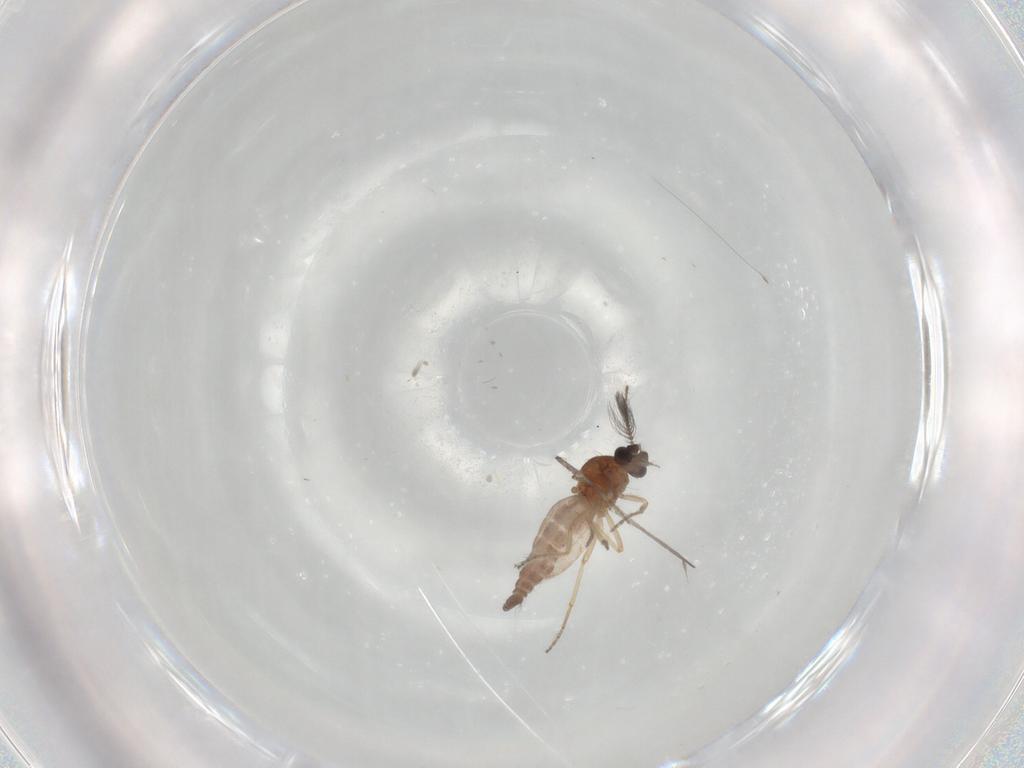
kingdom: Animalia
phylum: Arthropoda
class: Insecta
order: Diptera
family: Ceratopogonidae
